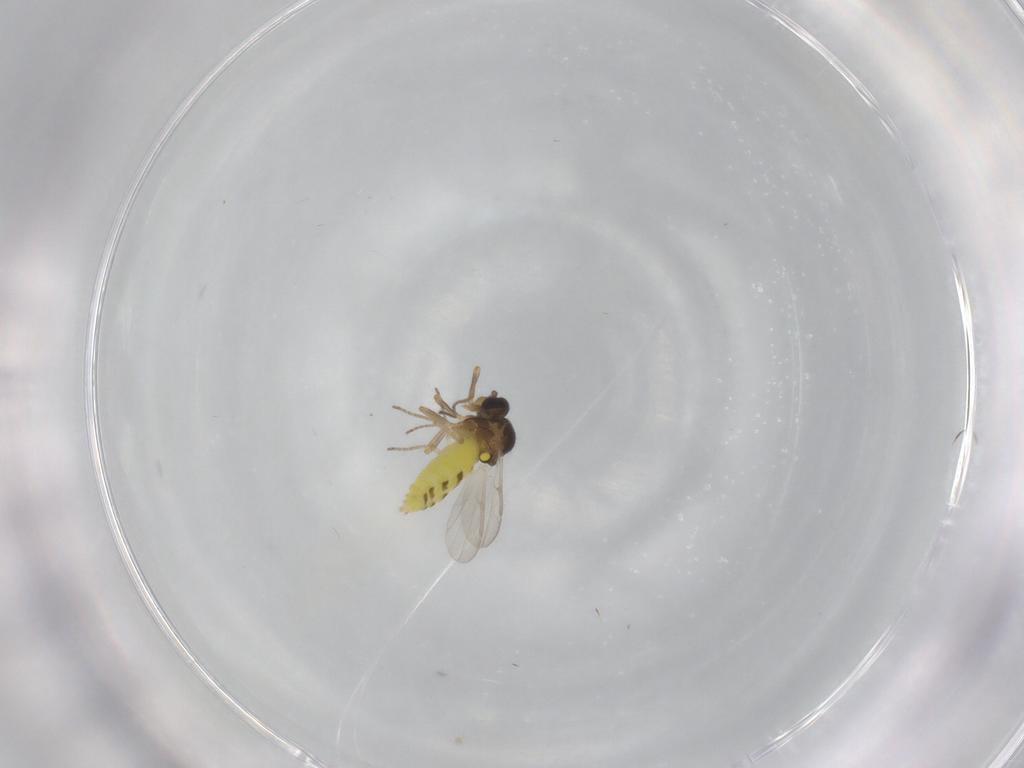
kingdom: Animalia
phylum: Arthropoda
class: Insecta
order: Diptera
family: Ceratopogonidae
